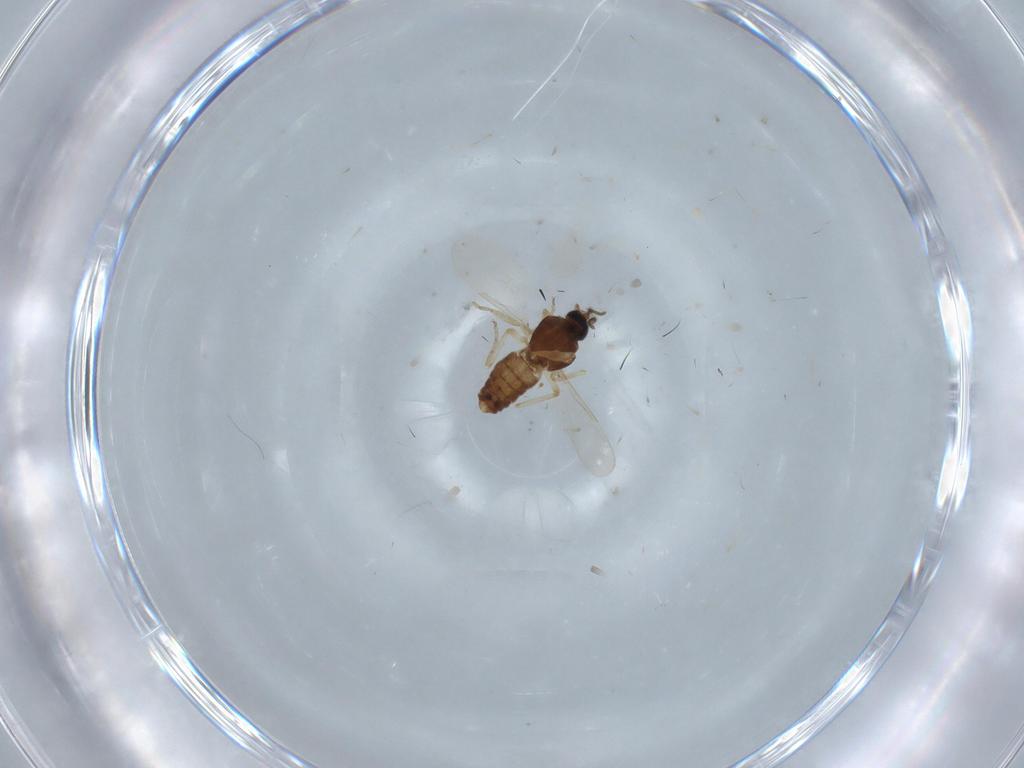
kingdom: Animalia
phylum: Arthropoda
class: Insecta
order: Diptera
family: Ceratopogonidae
